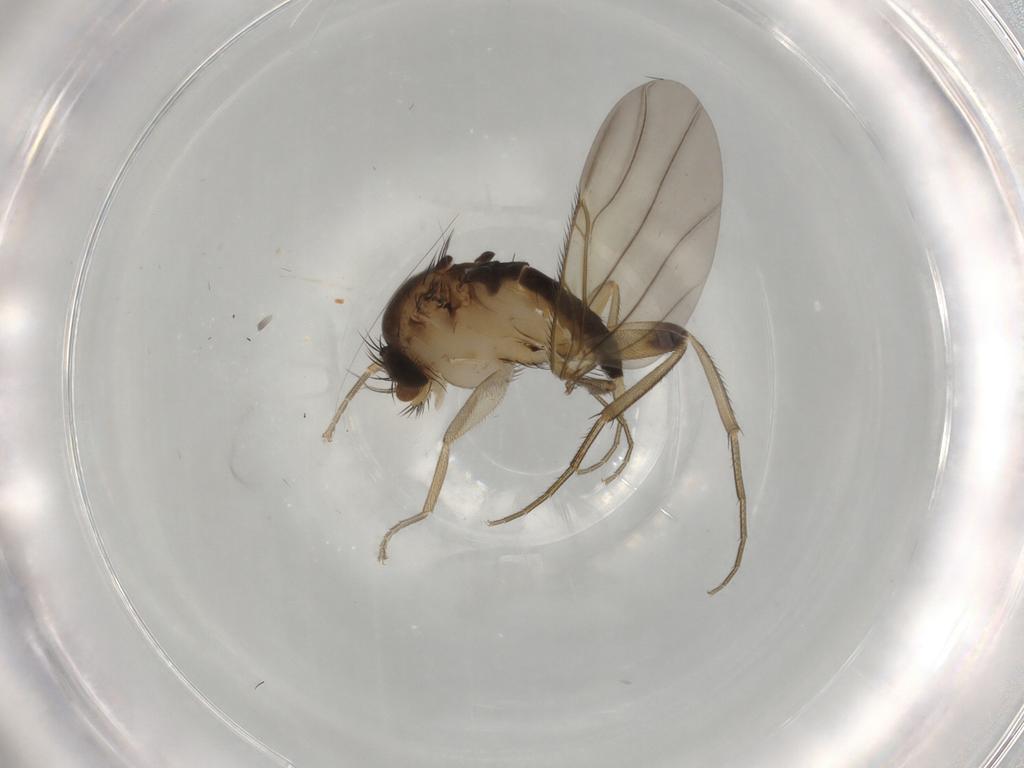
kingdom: Animalia
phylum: Arthropoda
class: Insecta
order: Diptera
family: Phoridae
